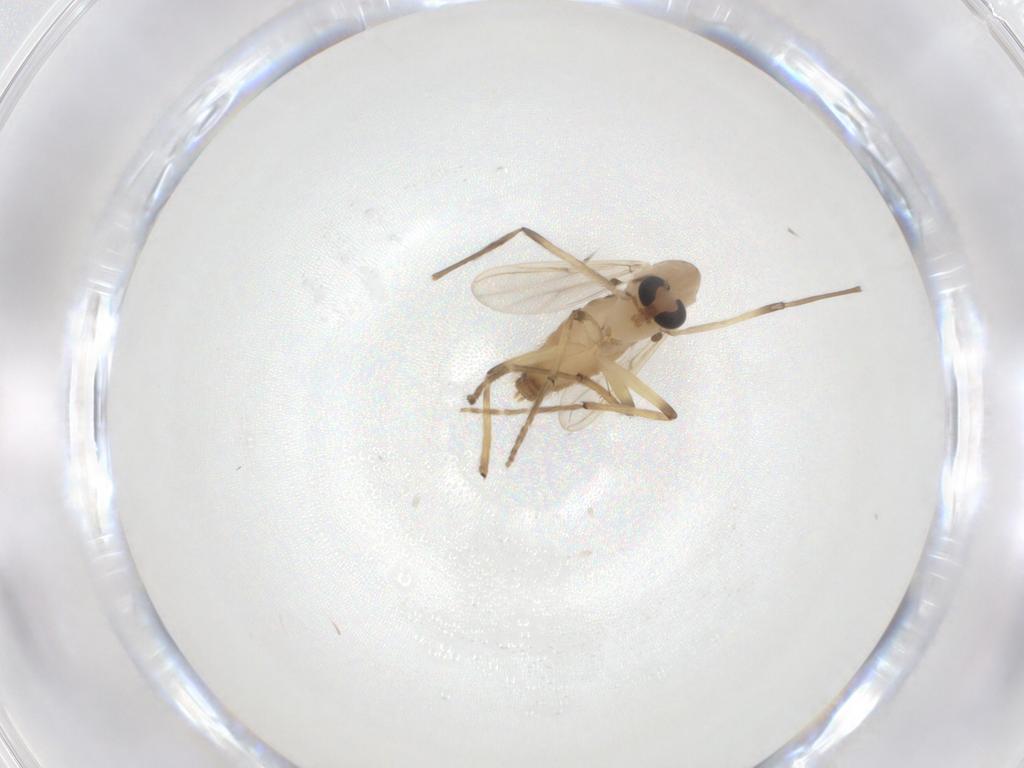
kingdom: Animalia
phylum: Arthropoda
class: Insecta
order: Diptera
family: Chironomidae
